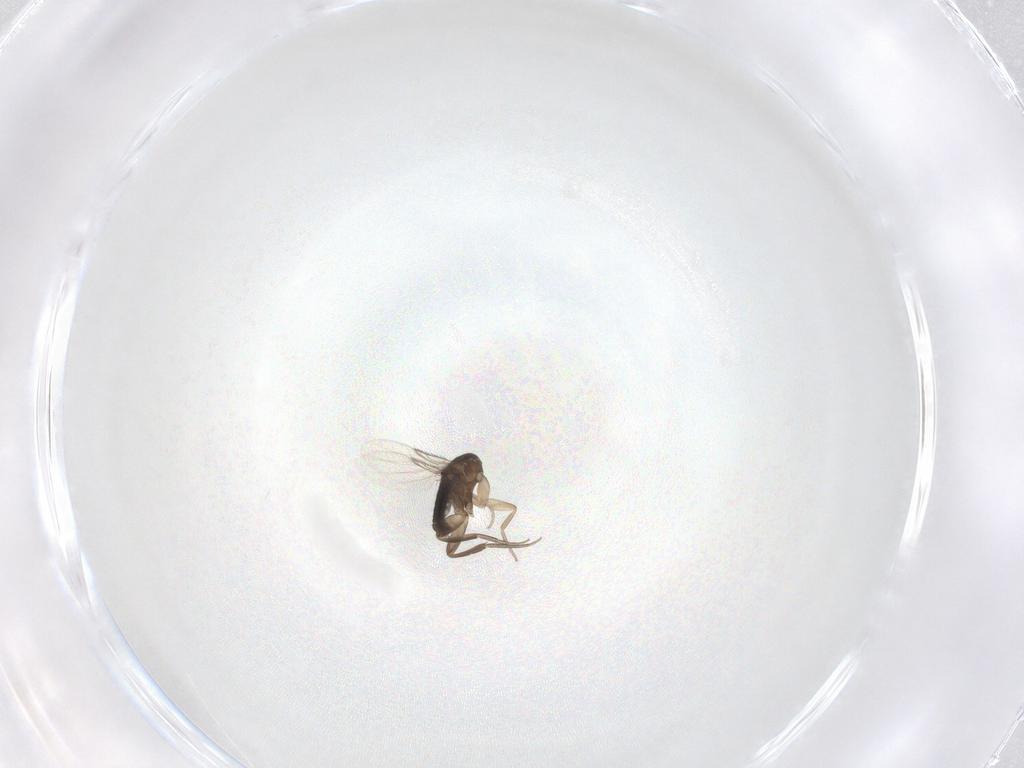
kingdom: Animalia
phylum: Arthropoda
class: Insecta
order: Diptera
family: Phoridae
